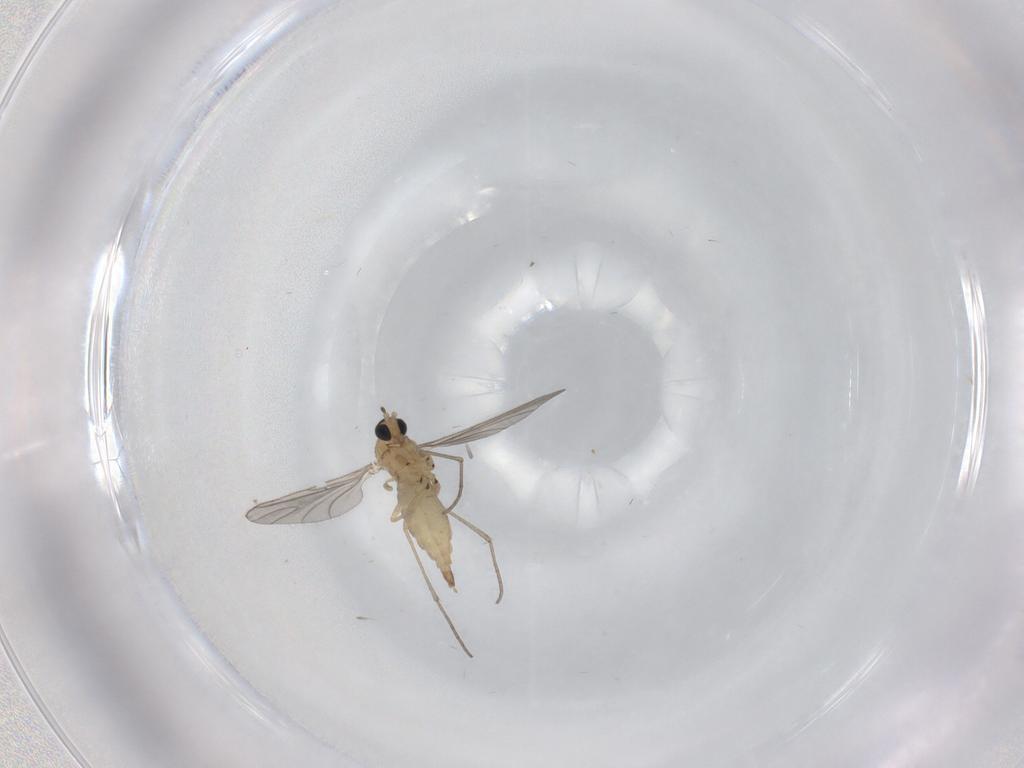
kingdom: Animalia
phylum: Arthropoda
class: Insecta
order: Diptera
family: Sciaridae
